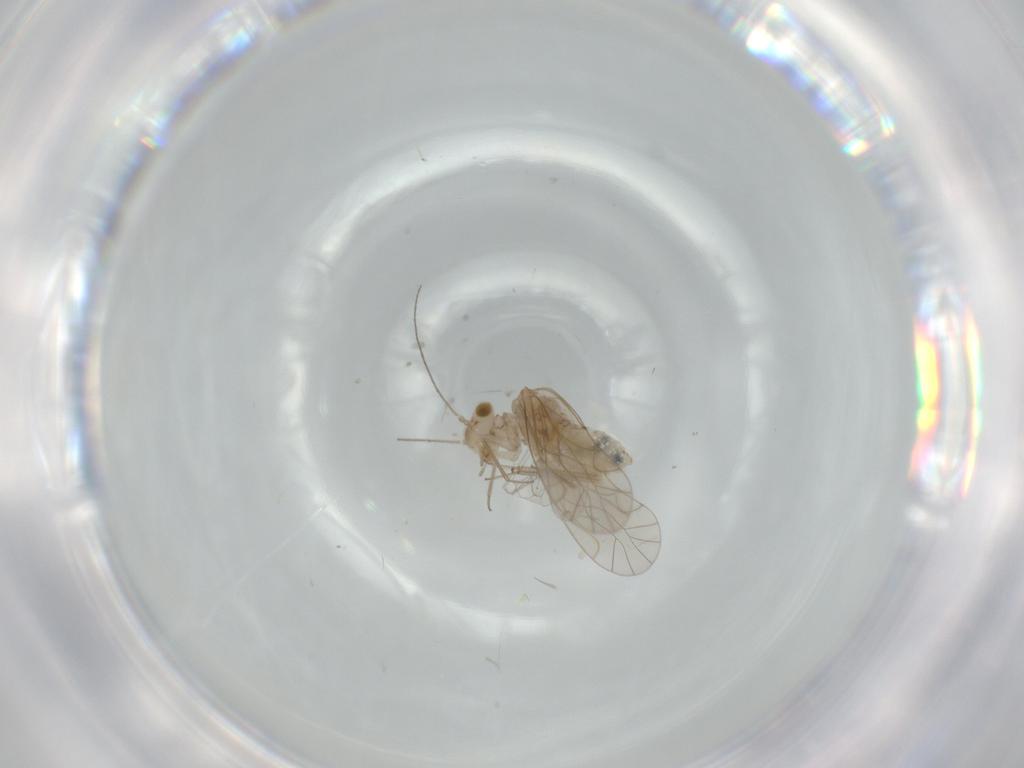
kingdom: Animalia
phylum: Arthropoda
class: Insecta
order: Psocodea
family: Lachesillidae
